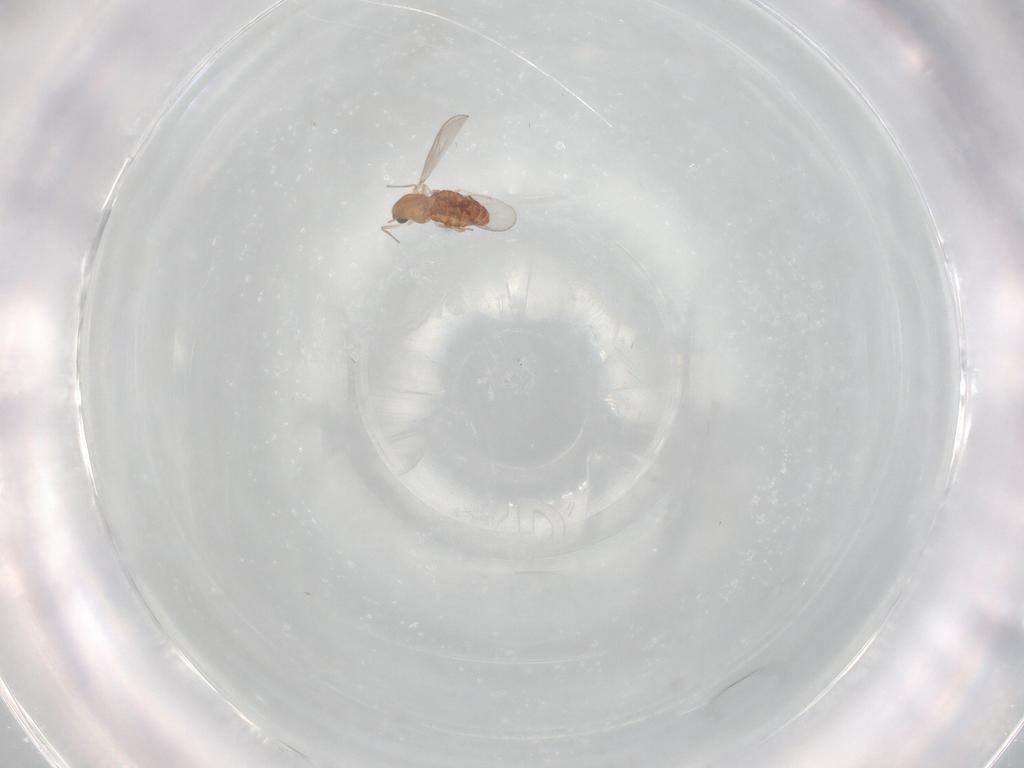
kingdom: Animalia
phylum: Arthropoda
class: Insecta
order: Diptera
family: Chironomidae
